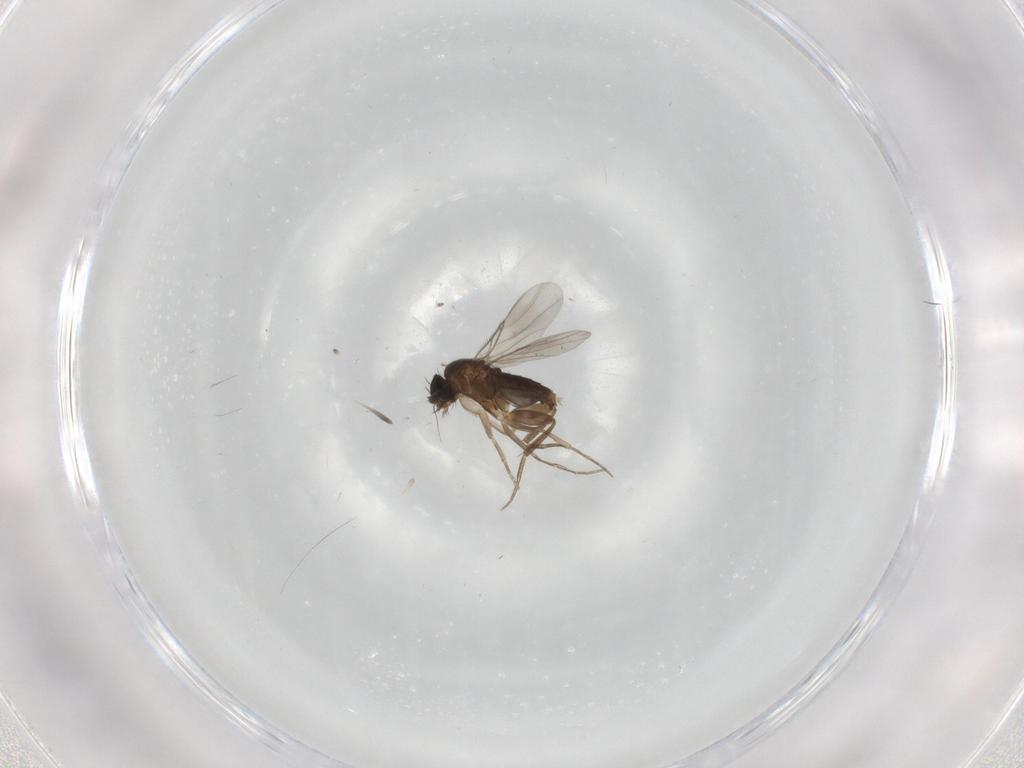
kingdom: Animalia
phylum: Arthropoda
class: Insecta
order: Diptera
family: Phoridae
